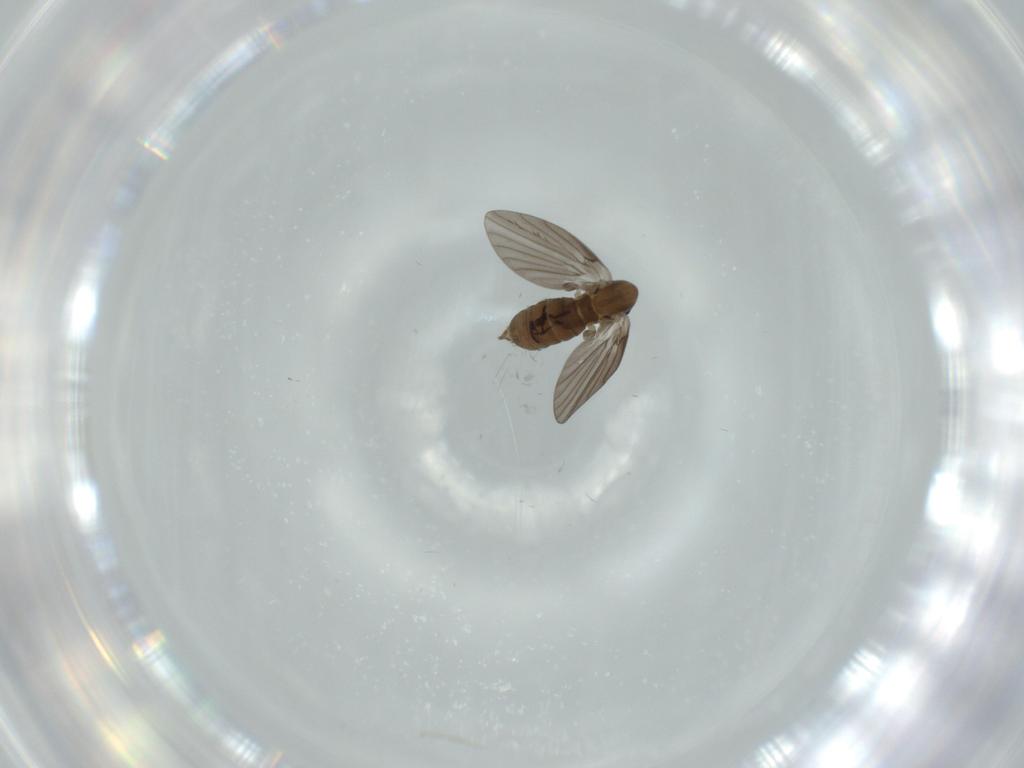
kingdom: Animalia
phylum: Arthropoda
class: Insecta
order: Diptera
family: Psychodidae
